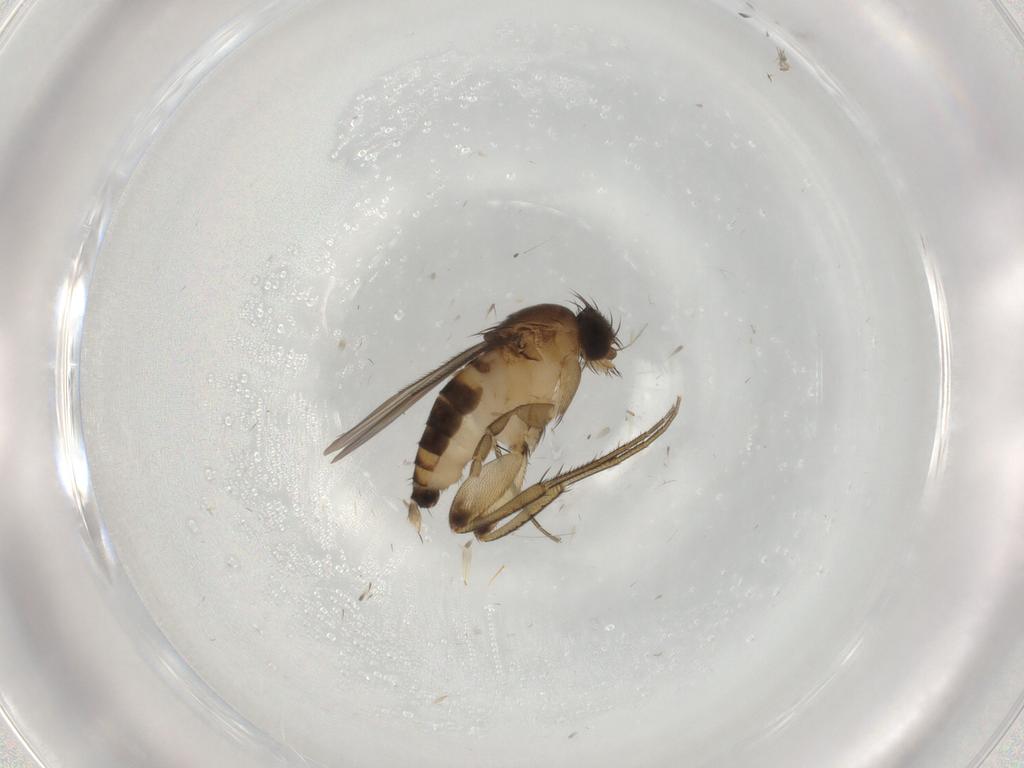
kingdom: Animalia
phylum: Arthropoda
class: Insecta
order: Diptera
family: Phoridae
